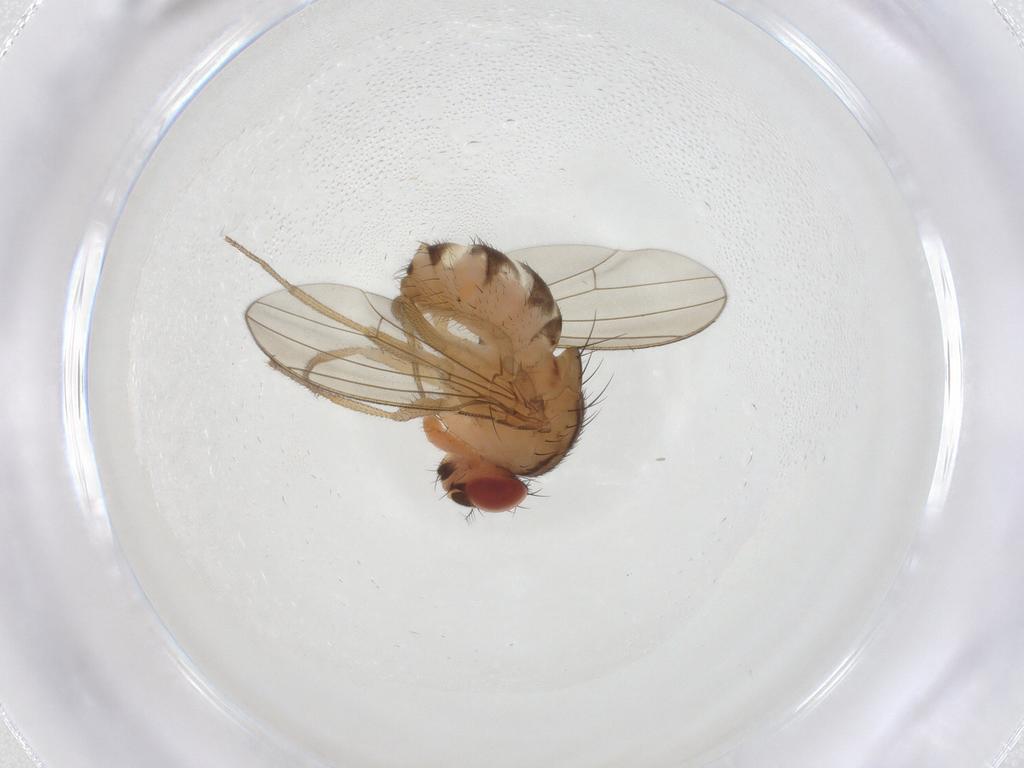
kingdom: Animalia
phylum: Arthropoda
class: Insecta
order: Diptera
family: Drosophilidae
